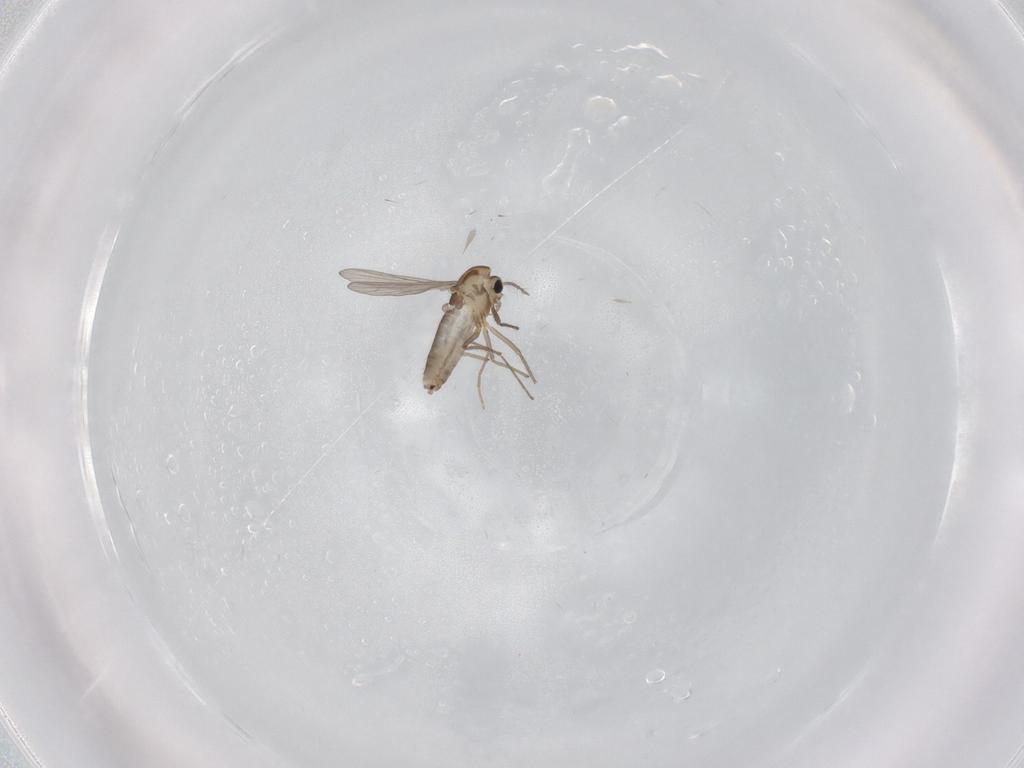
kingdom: Animalia
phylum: Arthropoda
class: Insecta
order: Diptera
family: Chironomidae
